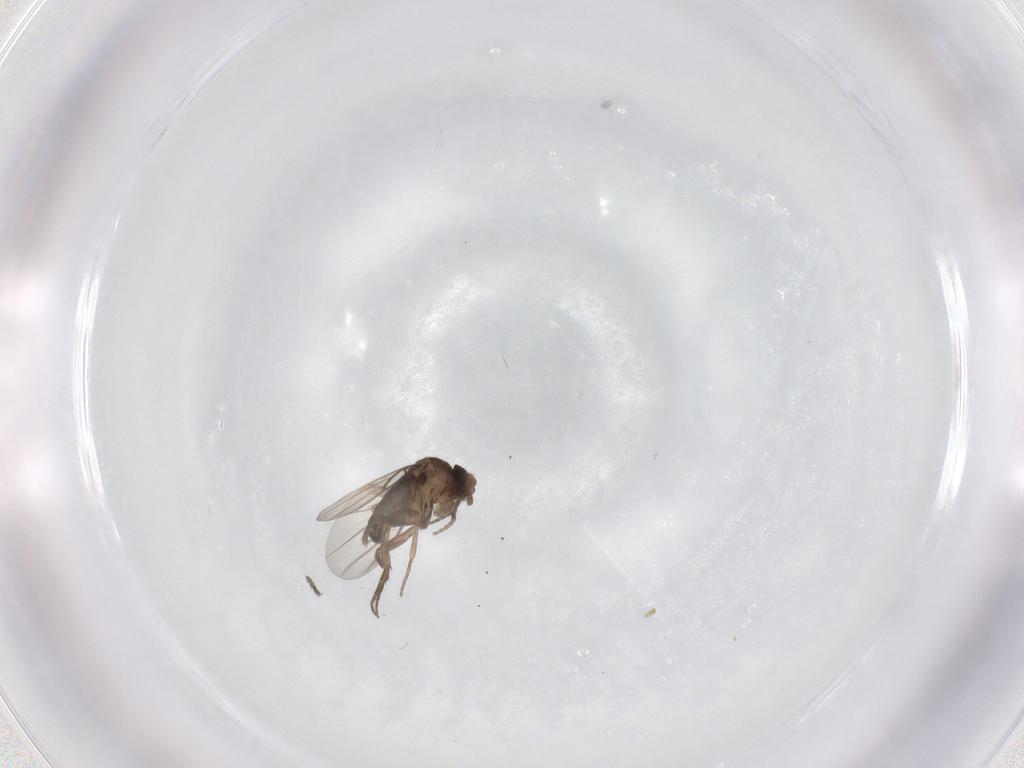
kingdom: Animalia
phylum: Arthropoda
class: Insecta
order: Diptera
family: Phoridae
